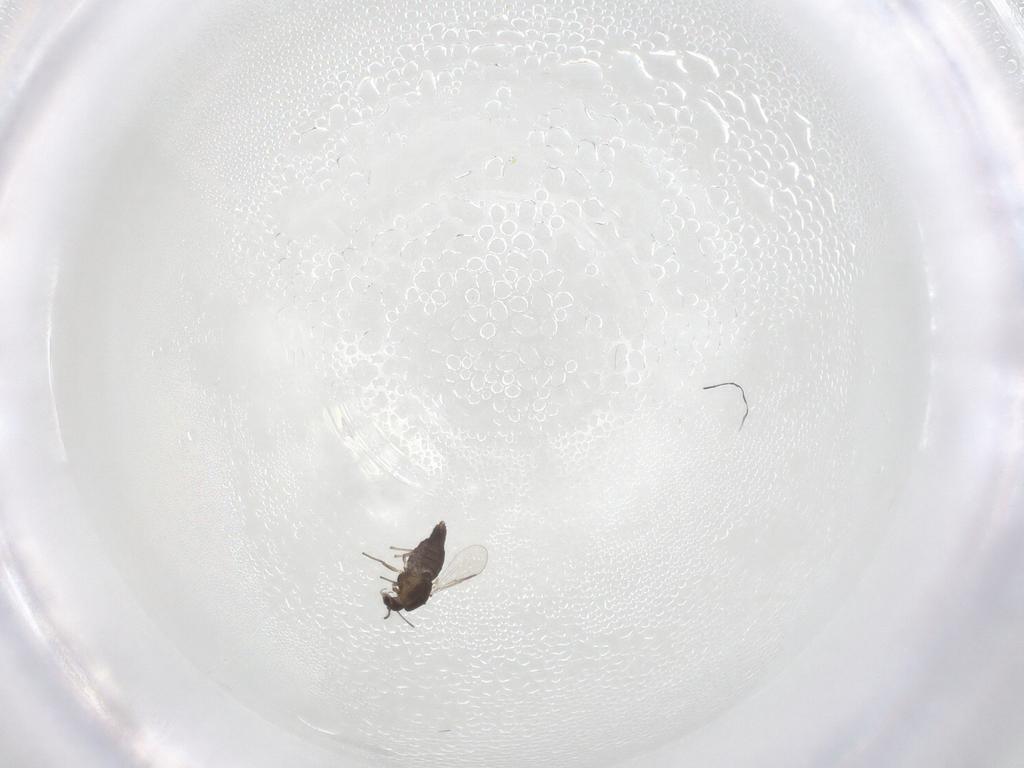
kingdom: Animalia
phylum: Arthropoda
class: Insecta
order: Diptera
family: Chironomidae
